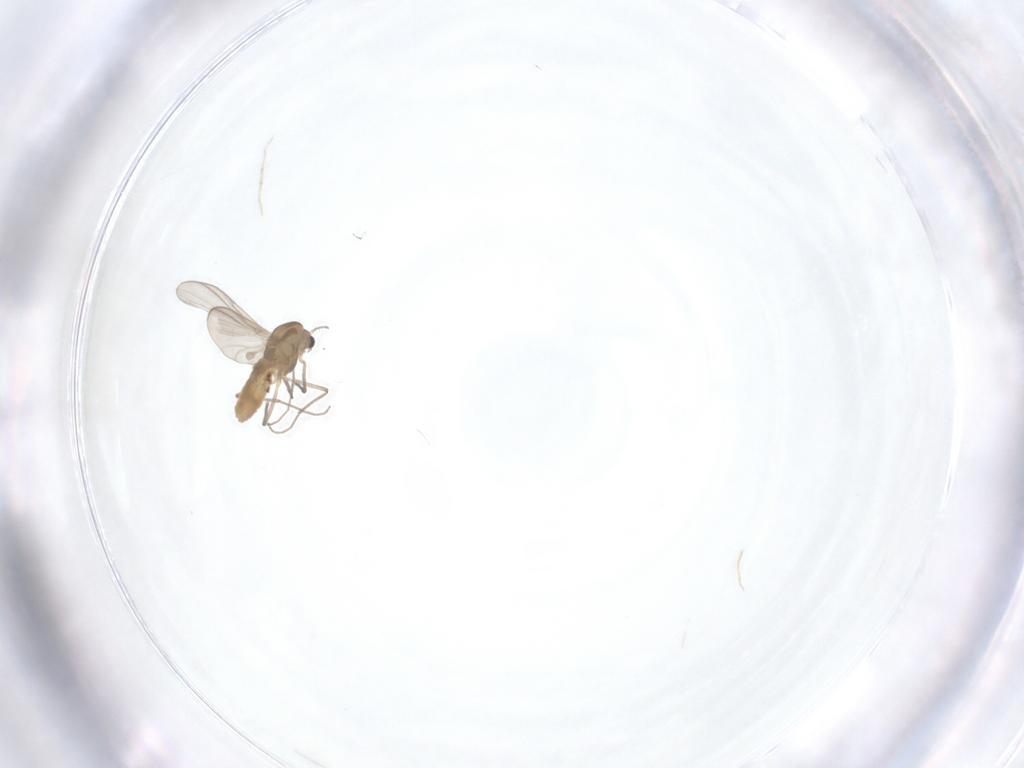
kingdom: Animalia
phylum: Arthropoda
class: Insecta
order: Diptera
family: Chironomidae
